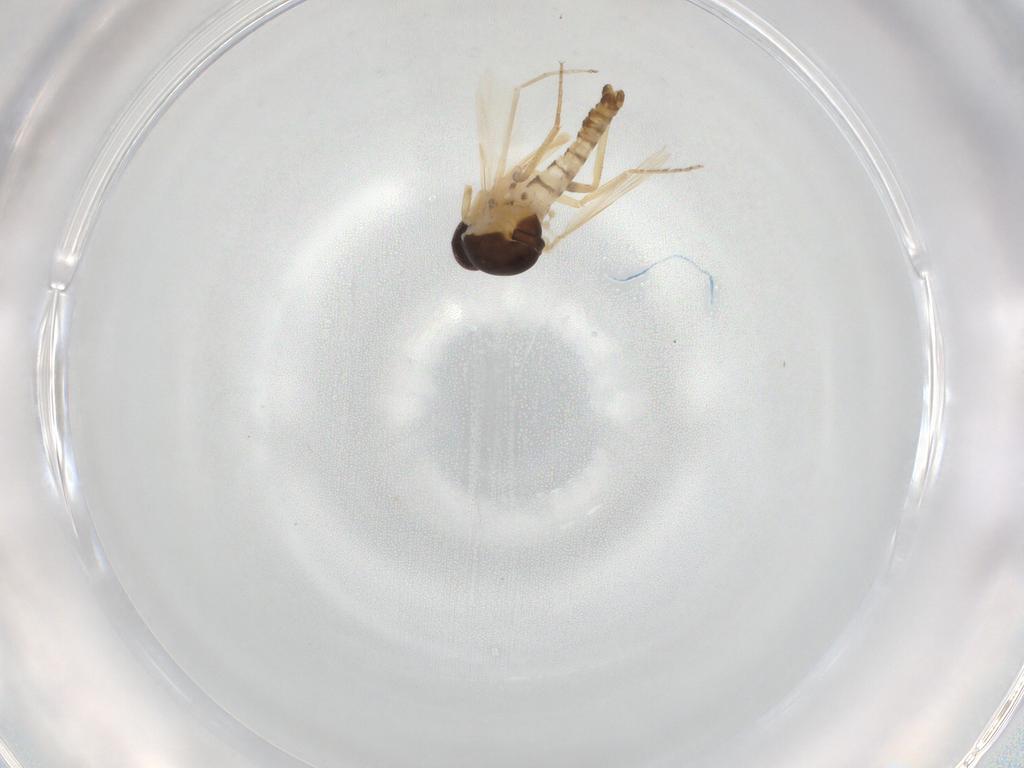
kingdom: Animalia
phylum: Arthropoda
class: Insecta
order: Diptera
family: Ceratopogonidae
